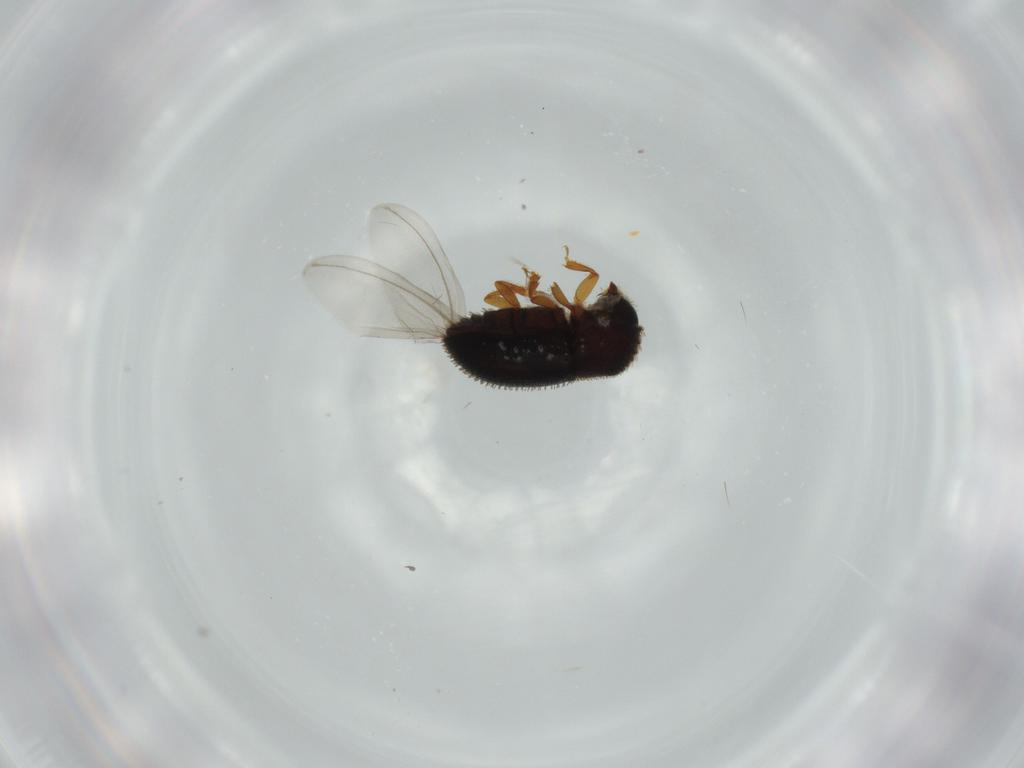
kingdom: Animalia
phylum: Arthropoda
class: Insecta
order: Coleoptera
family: Curculionidae
